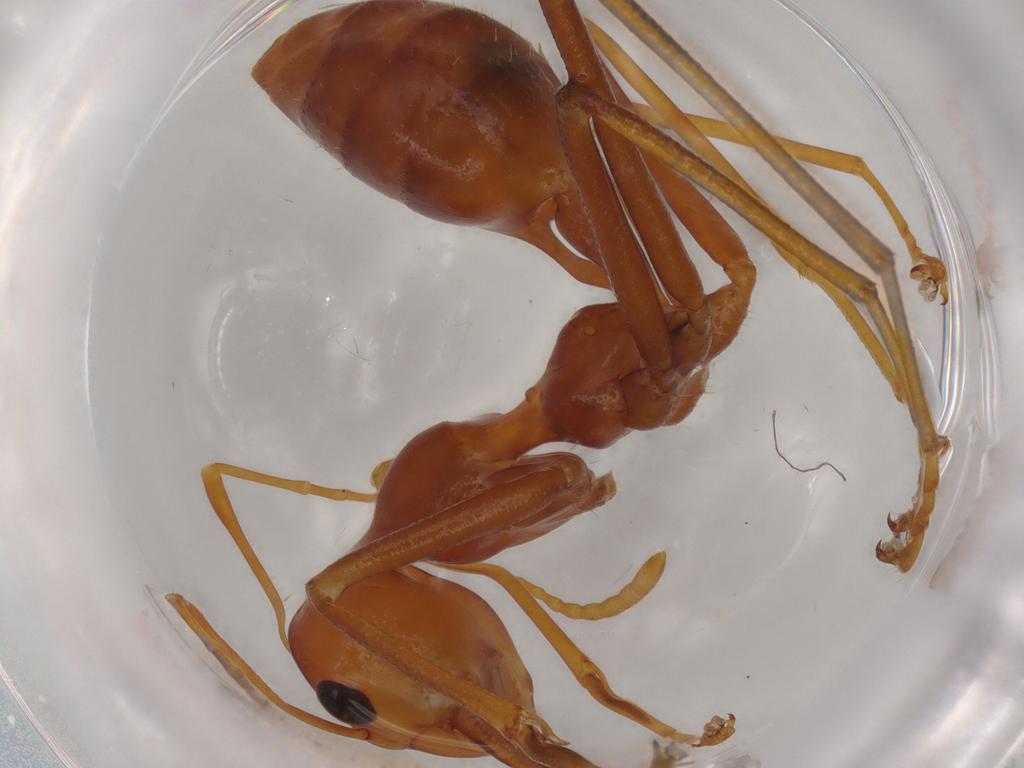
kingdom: Animalia
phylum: Arthropoda
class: Insecta
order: Hymenoptera
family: Formicidae
